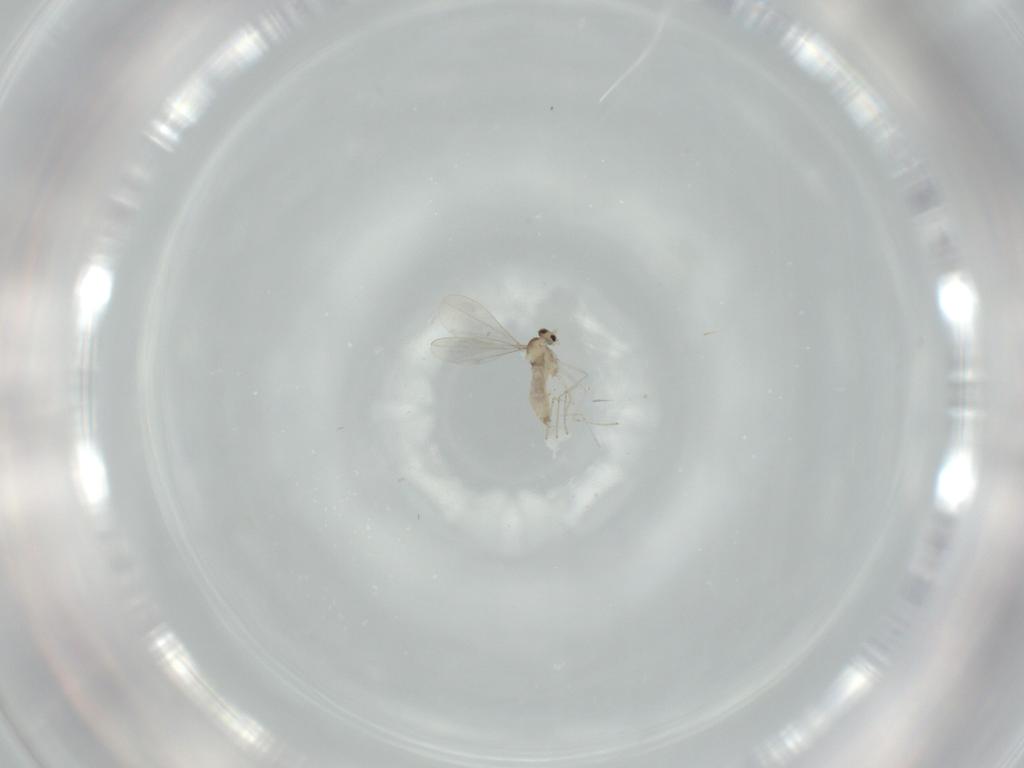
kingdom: Animalia
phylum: Arthropoda
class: Insecta
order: Diptera
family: Cecidomyiidae
